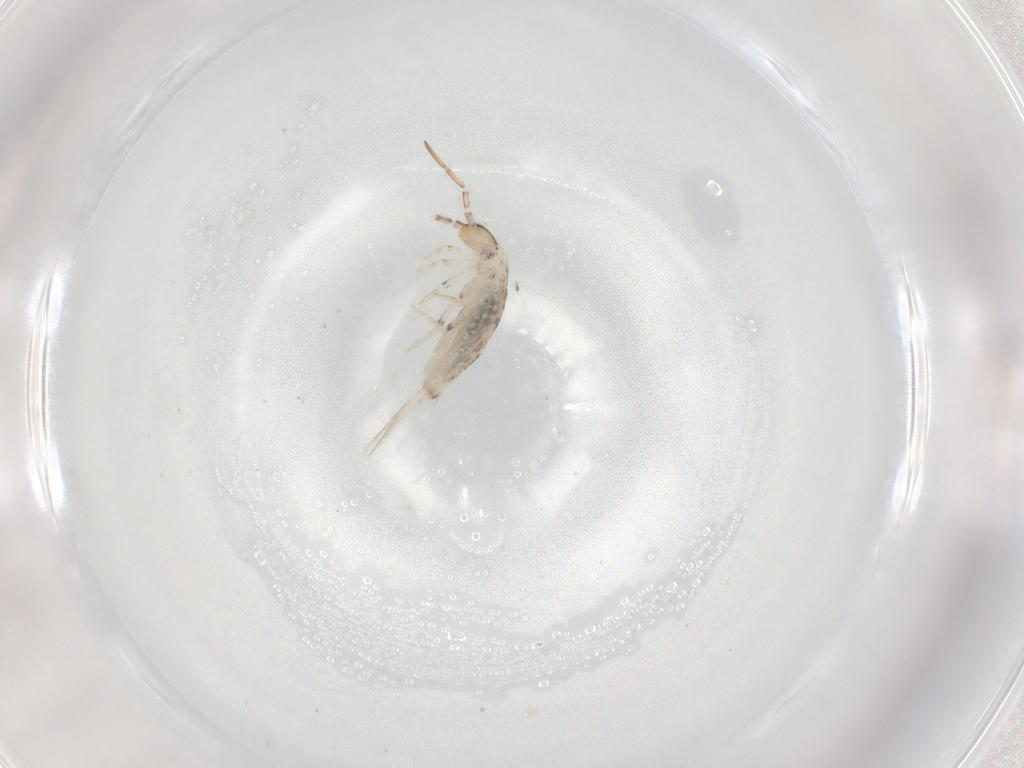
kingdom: Animalia
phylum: Arthropoda
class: Collembola
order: Entomobryomorpha
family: Entomobryidae
